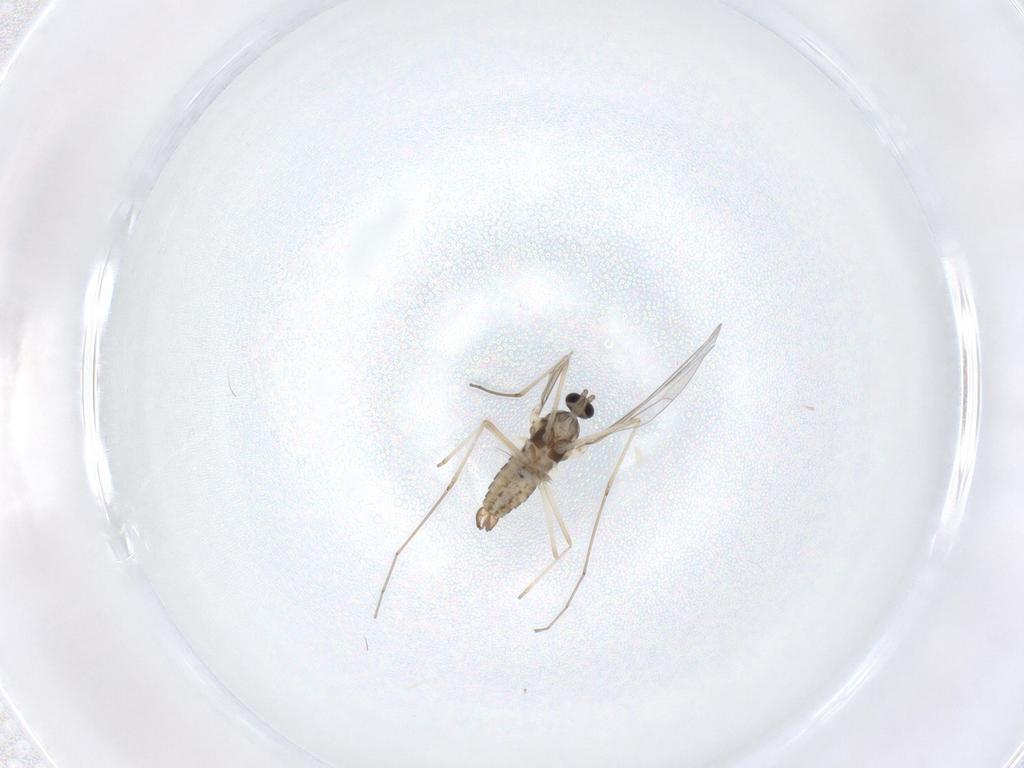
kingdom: Animalia
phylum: Arthropoda
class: Insecta
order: Diptera
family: Cecidomyiidae
